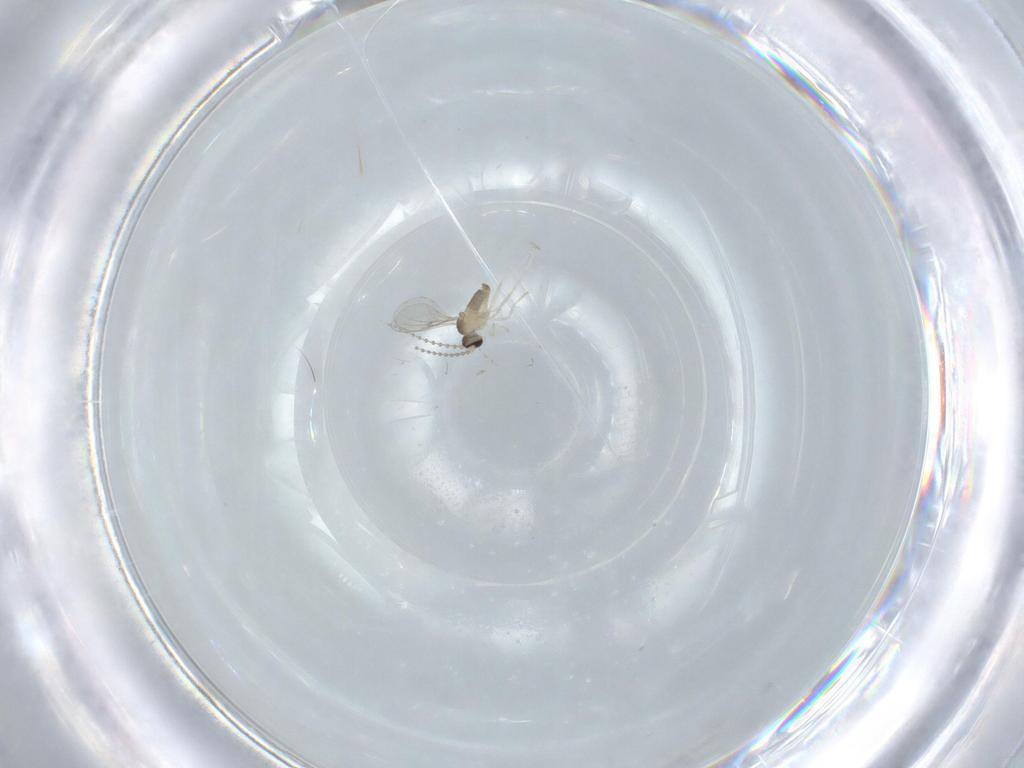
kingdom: Animalia
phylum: Arthropoda
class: Insecta
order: Diptera
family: Cecidomyiidae
